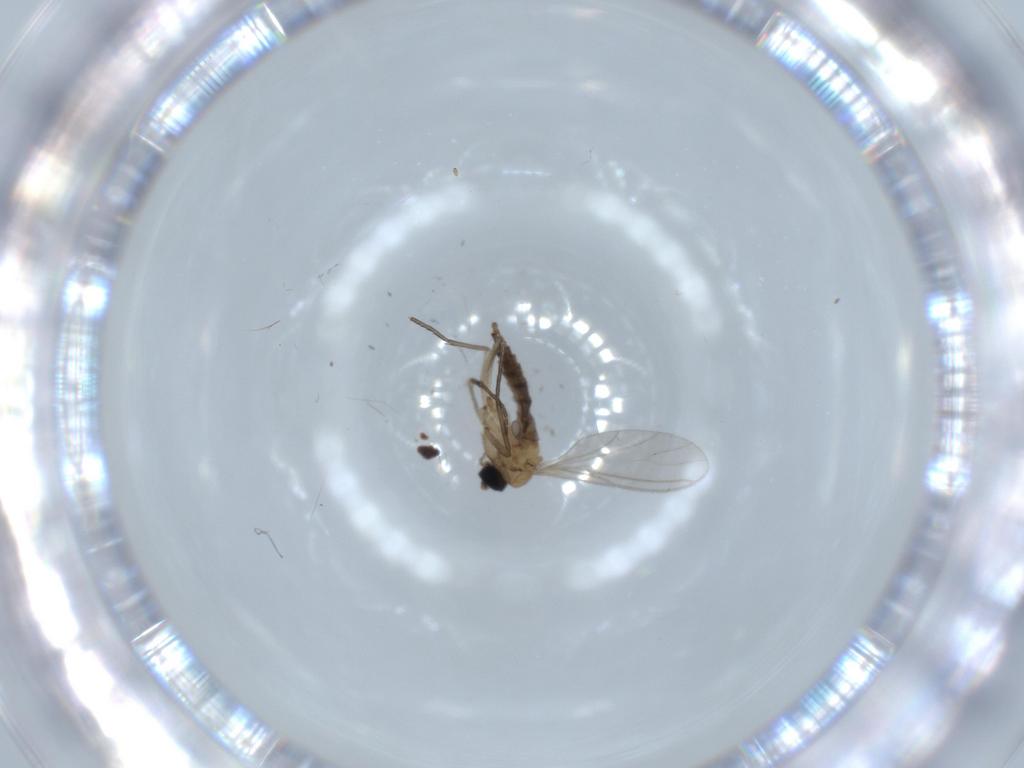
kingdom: Animalia
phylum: Arthropoda
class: Insecta
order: Diptera
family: Sciaridae
